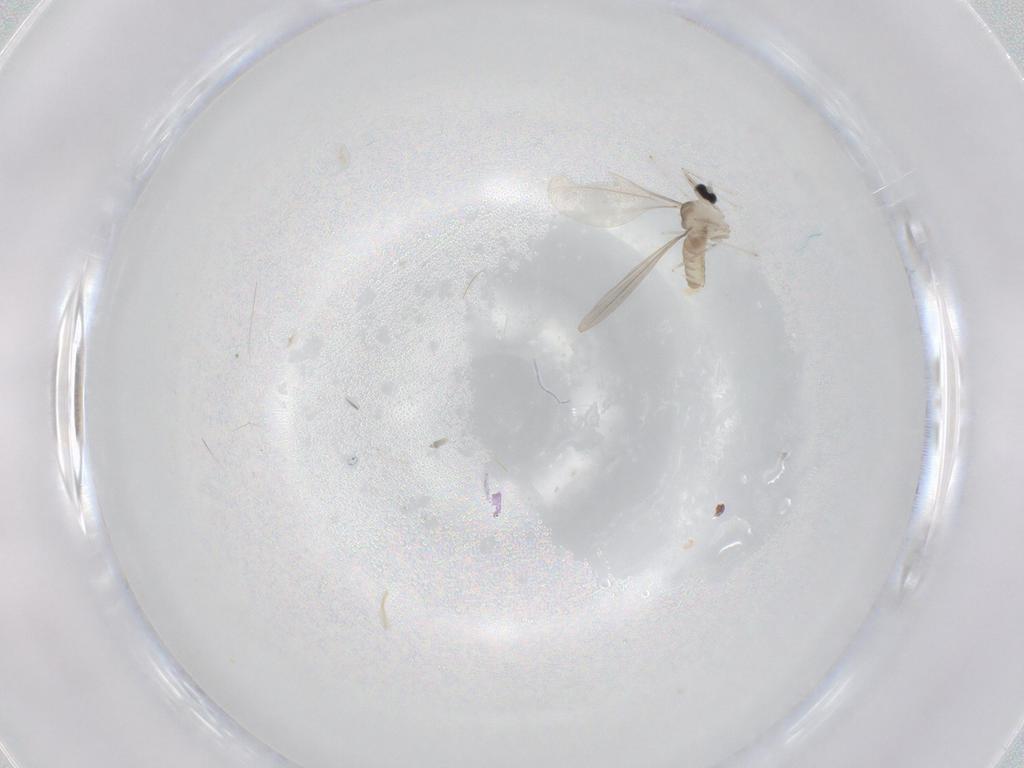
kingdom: Animalia
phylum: Arthropoda
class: Insecta
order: Diptera
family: Cecidomyiidae
